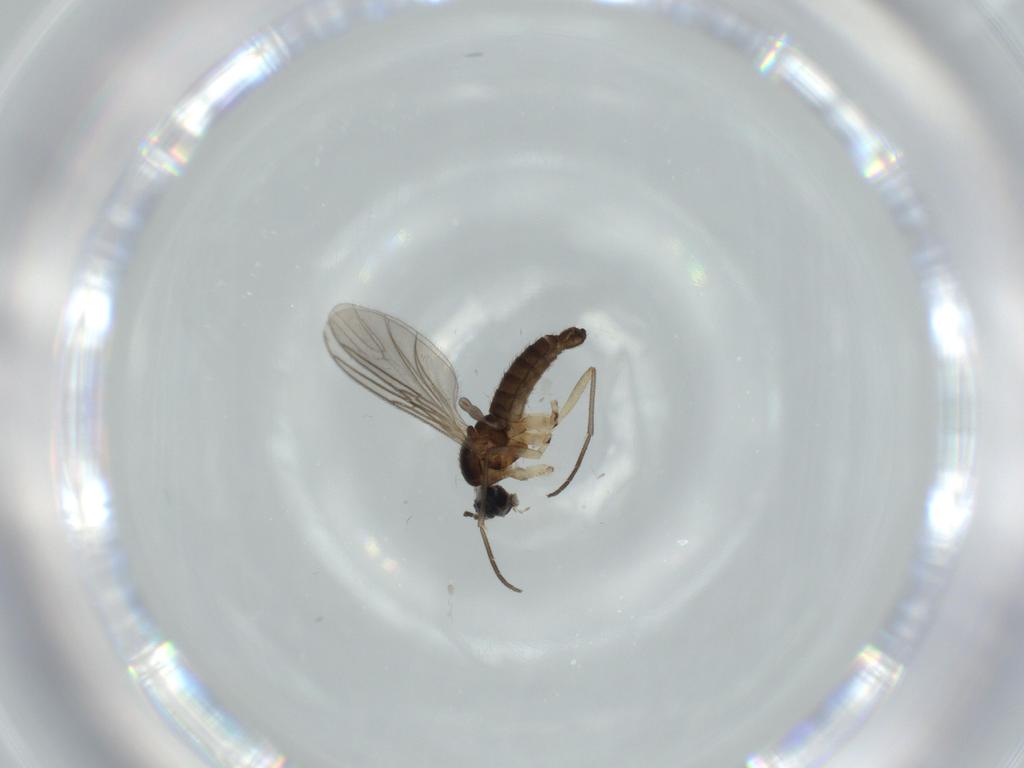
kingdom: Animalia
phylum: Arthropoda
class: Insecta
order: Diptera
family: Sciaridae
